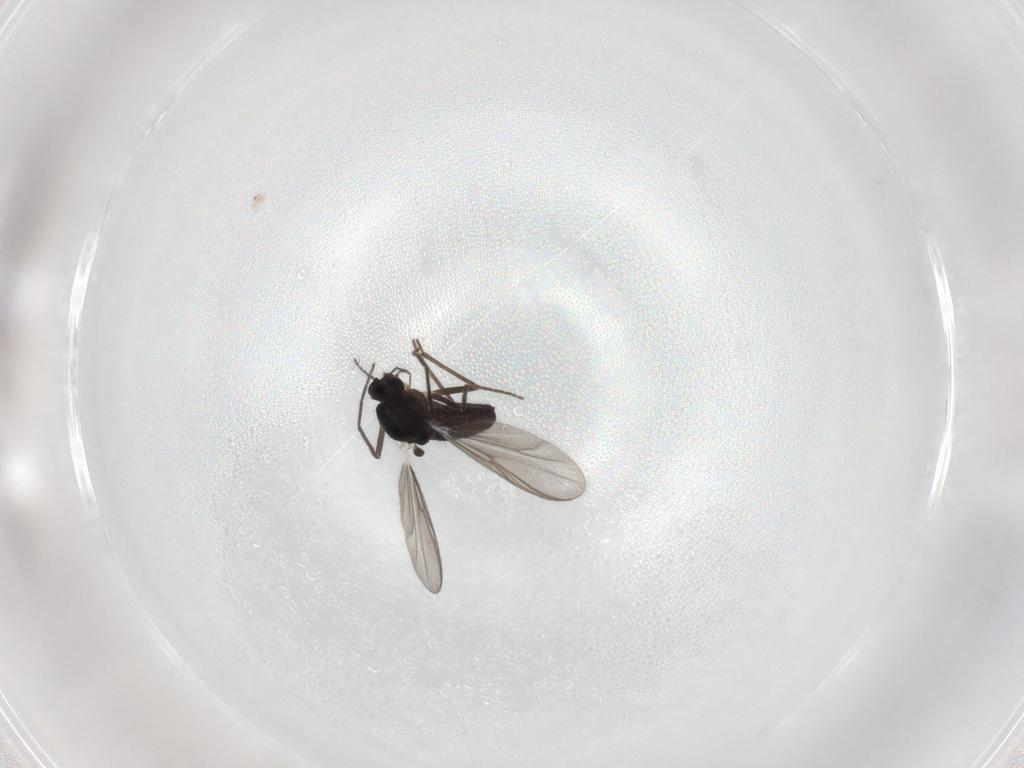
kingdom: Animalia
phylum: Arthropoda
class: Insecta
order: Diptera
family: Chironomidae
